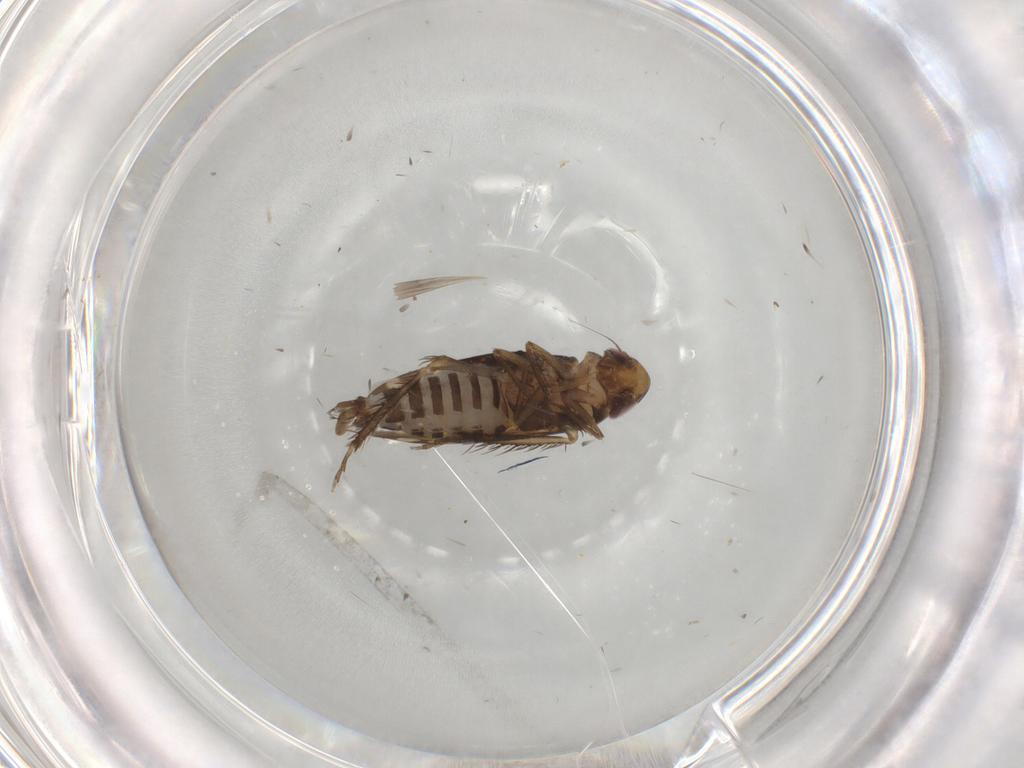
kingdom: Animalia
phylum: Arthropoda
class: Insecta
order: Hemiptera
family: Cicadellidae
